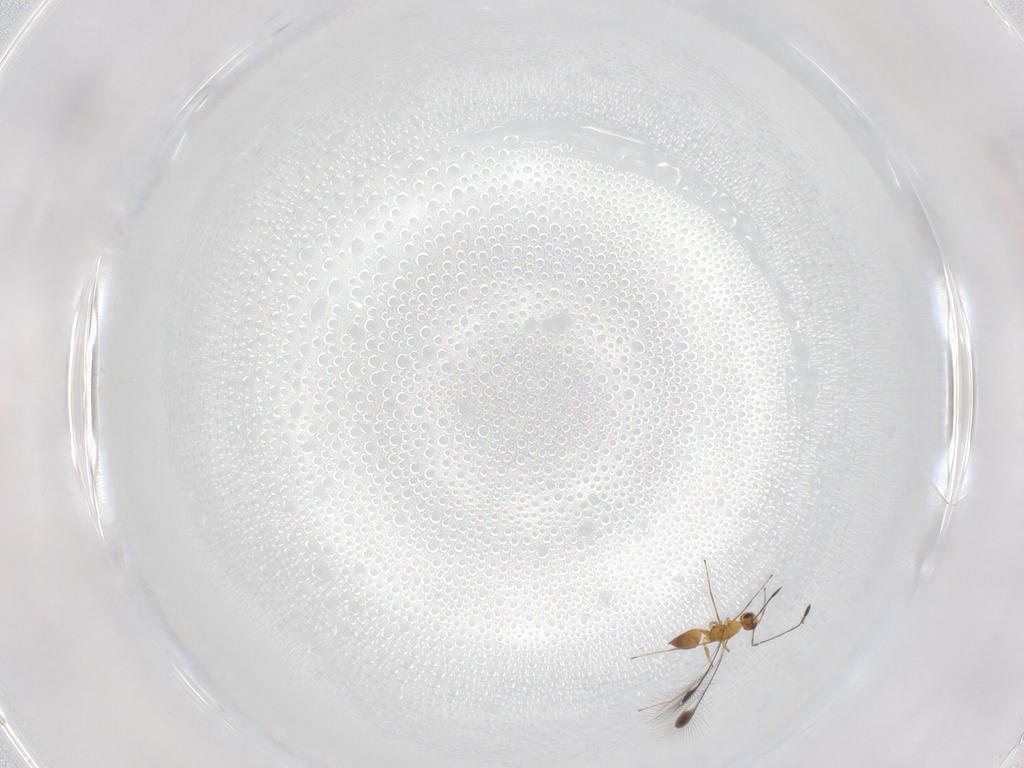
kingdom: Animalia
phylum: Arthropoda
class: Insecta
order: Hymenoptera
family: Mymaridae
